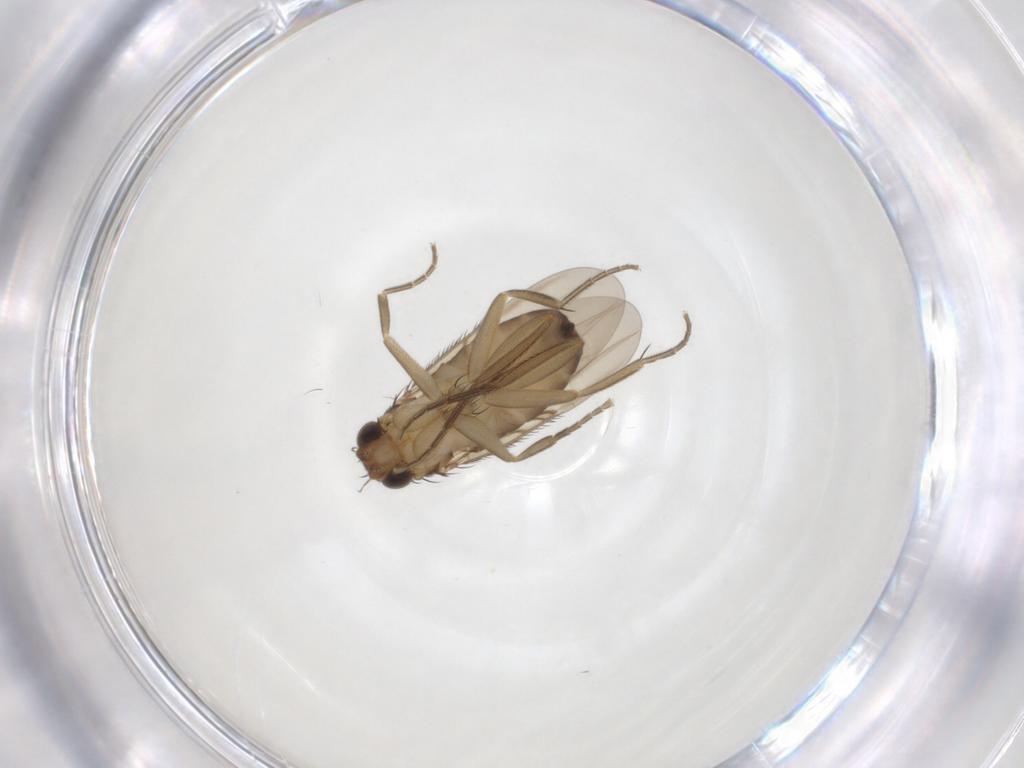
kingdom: Animalia
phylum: Arthropoda
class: Insecta
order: Diptera
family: Phoridae
